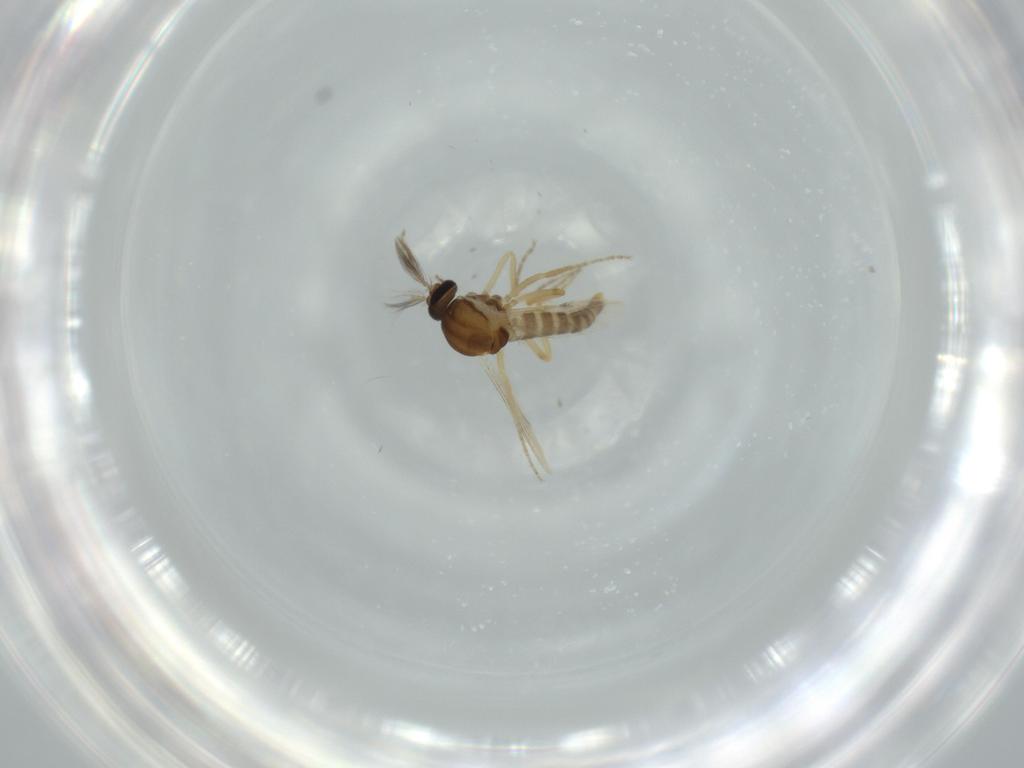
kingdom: Animalia
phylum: Arthropoda
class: Insecta
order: Diptera
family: Ceratopogonidae
